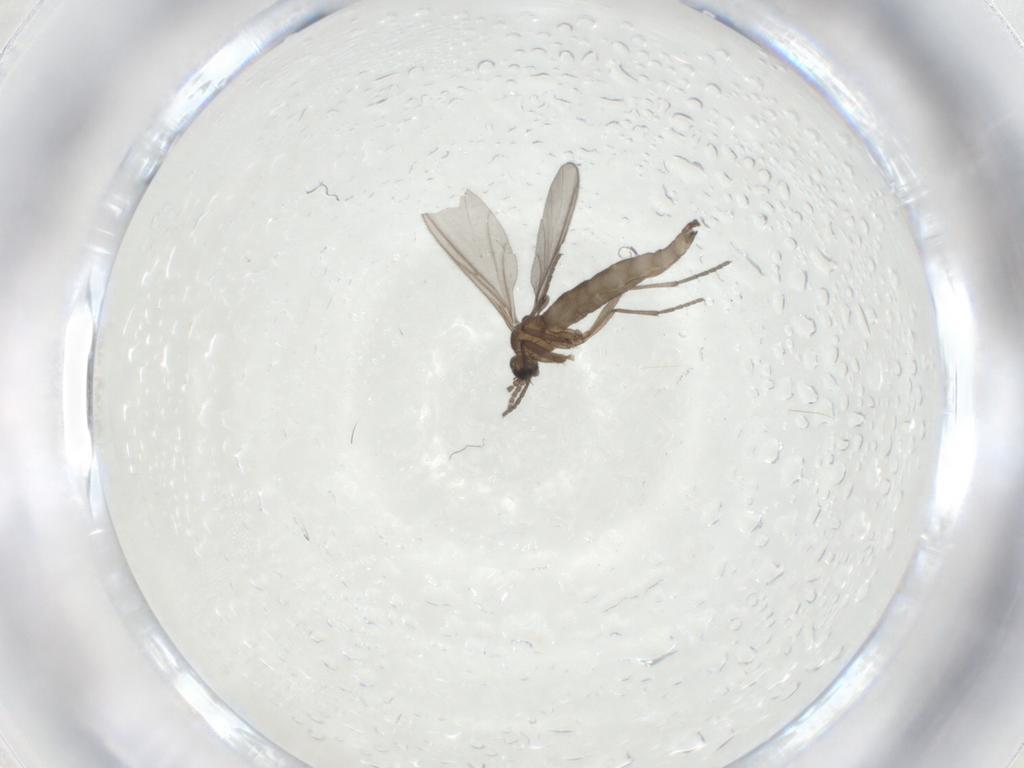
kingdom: Animalia
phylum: Arthropoda
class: Insecta
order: Diptera
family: Sciaridae
